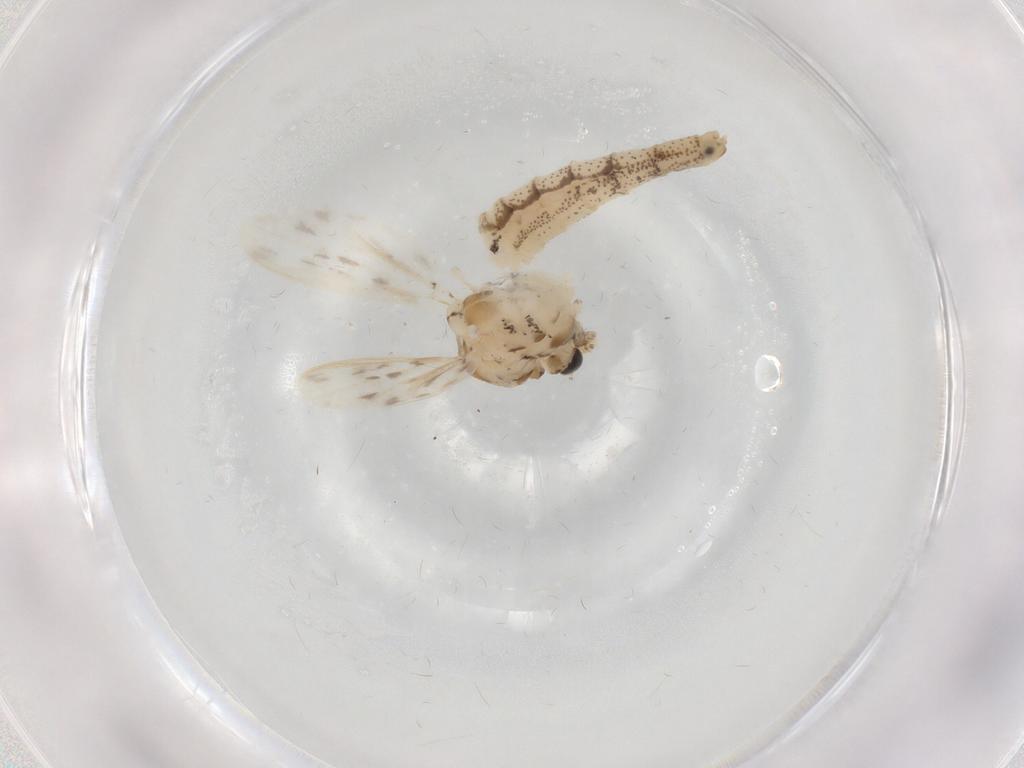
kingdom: Animalia
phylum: Arthropoda
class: Insecta
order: Diptera
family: Chaoboridae
